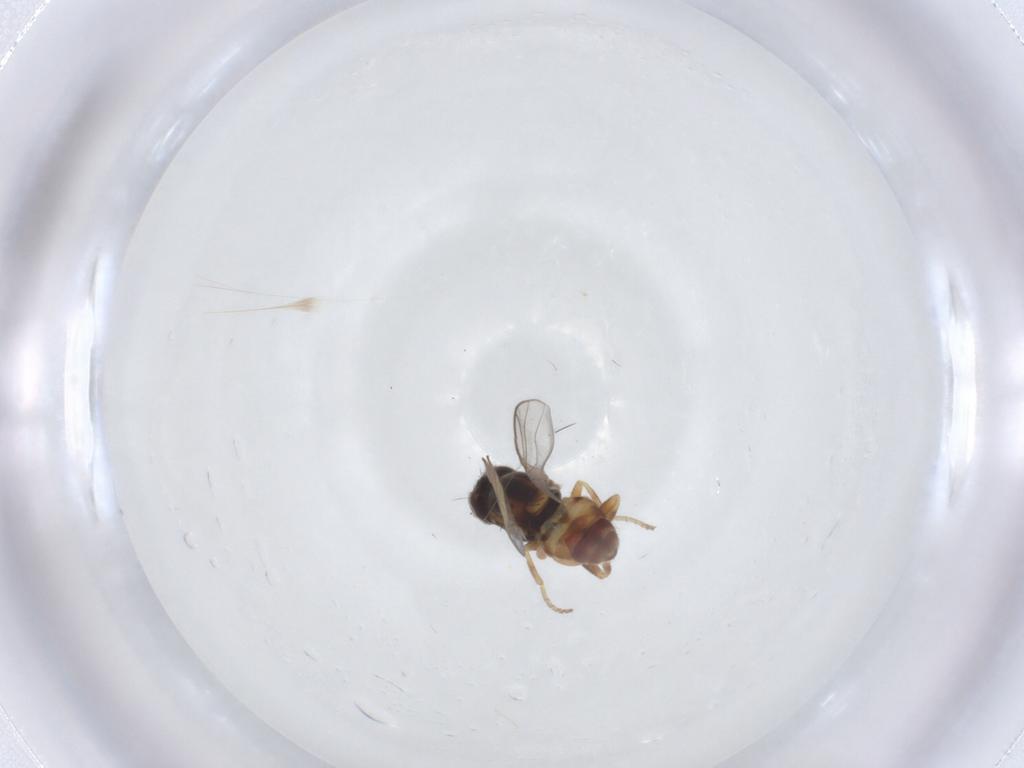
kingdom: Animalia
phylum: Arthropoda
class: Insecta
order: Diptera
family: Chloropidae
